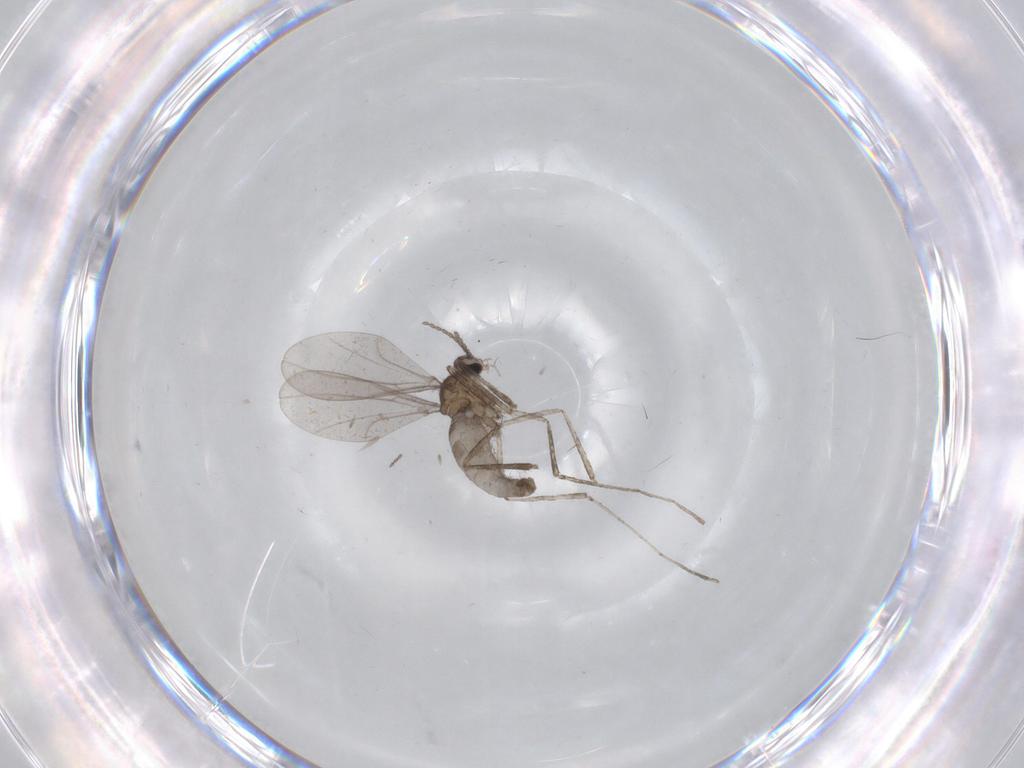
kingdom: Animalia
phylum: Arthropoda
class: Insecta
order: Diptera
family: Cecidomyiidae
